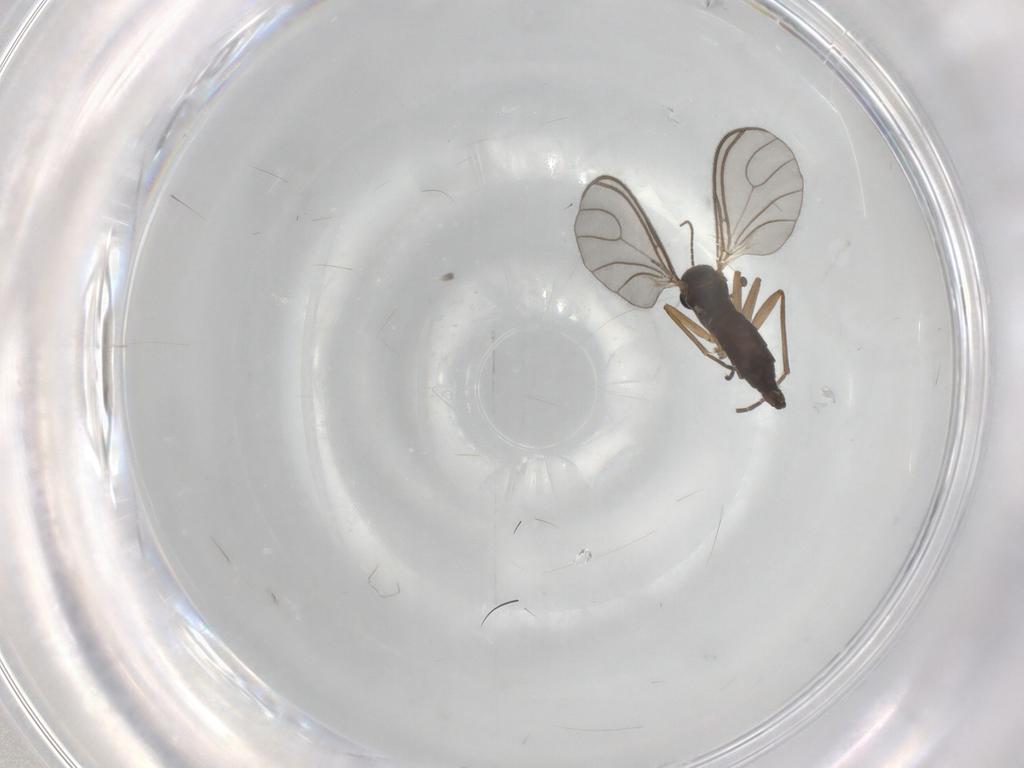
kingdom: Animalia
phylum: Arthropoda
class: Insecta
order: Diptera
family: Sciaridae
